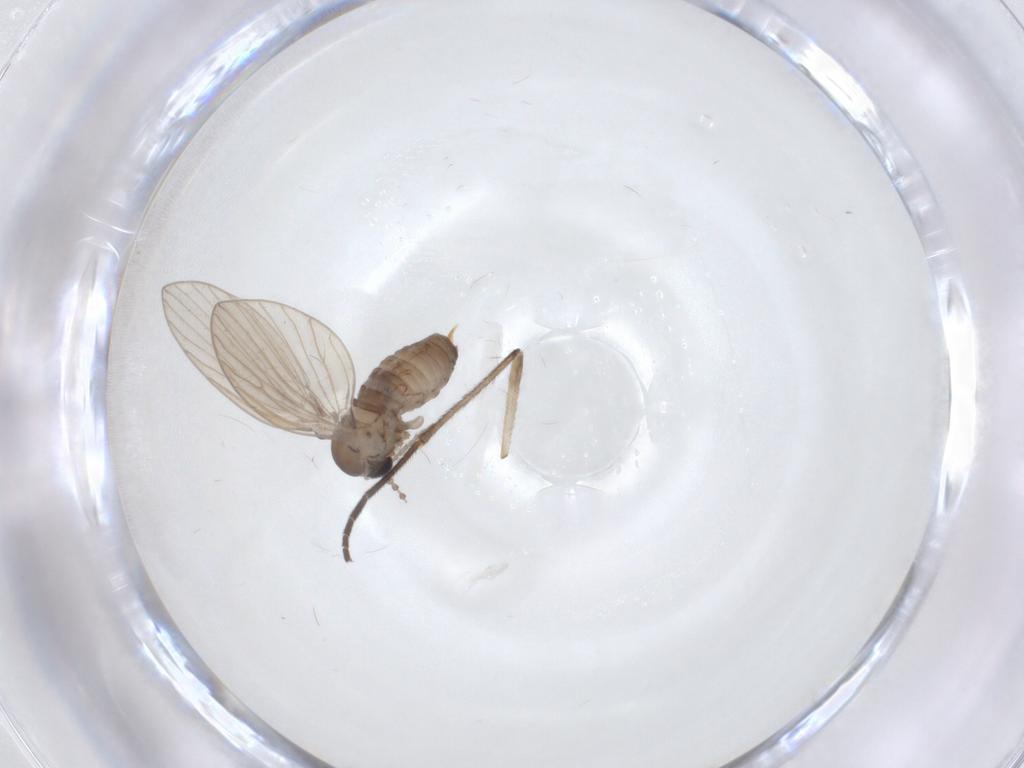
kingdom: Animalia
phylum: Arthropoda
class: Insecta
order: Diptera
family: Mycetophilidae
